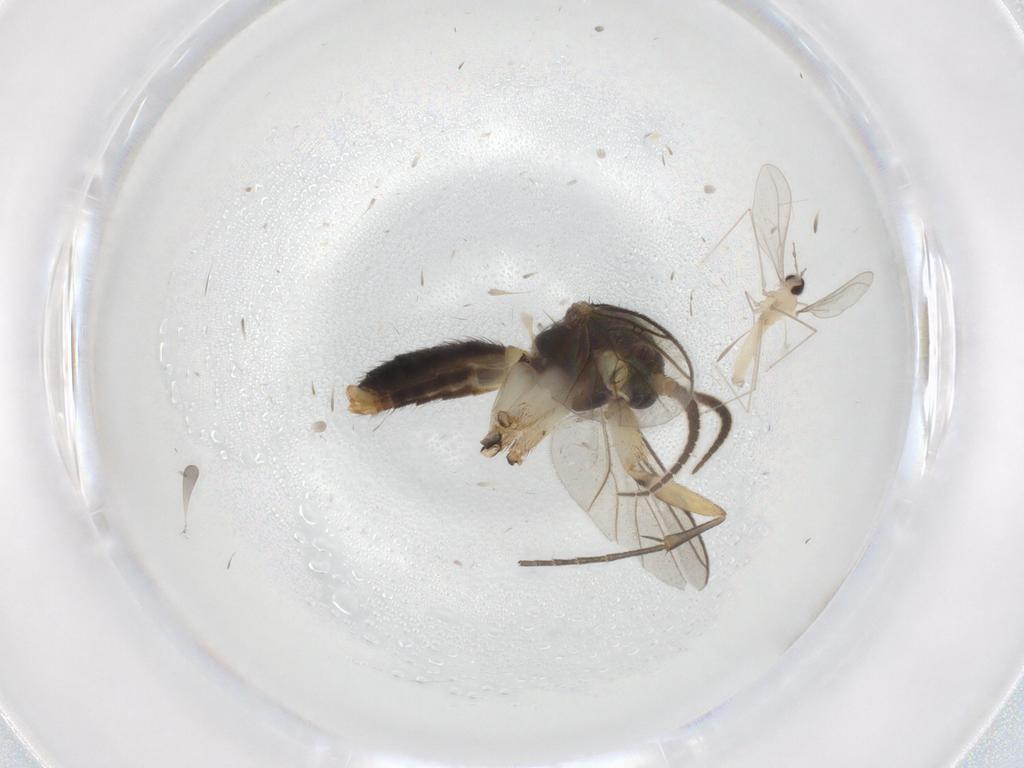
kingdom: Animalia
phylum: Arthropoda
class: Insecta
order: Diptera
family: Mycetophilidae
